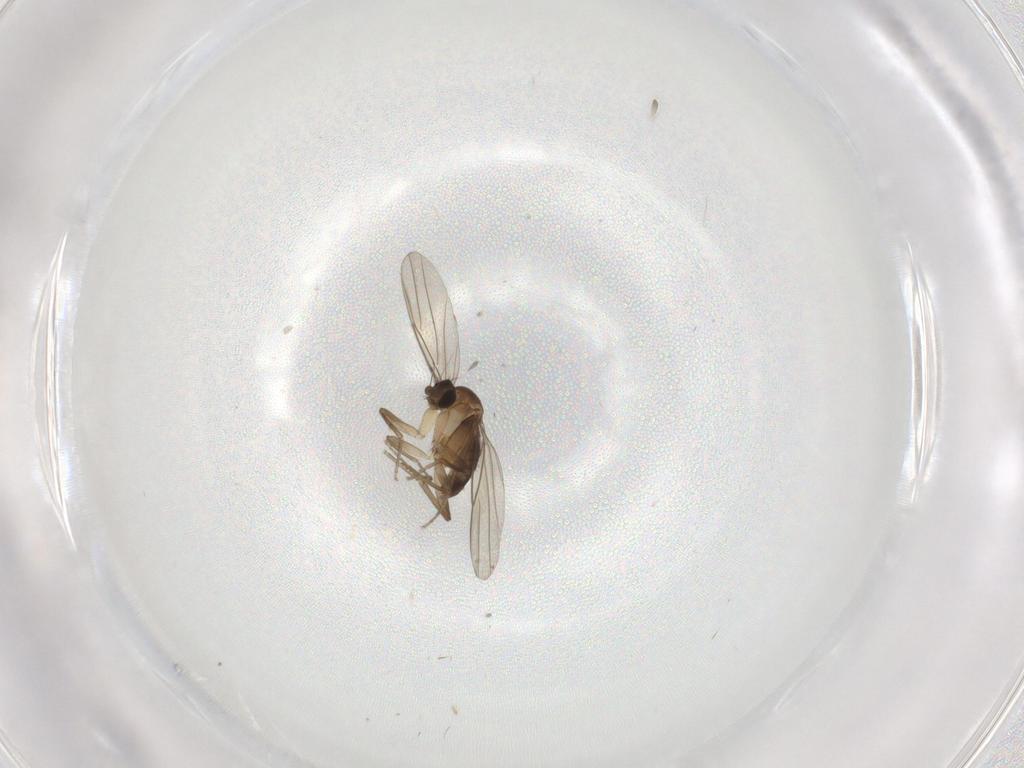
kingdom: Animalia
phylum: Arthropoda
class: Insecta
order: Diptera
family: Phoridae
